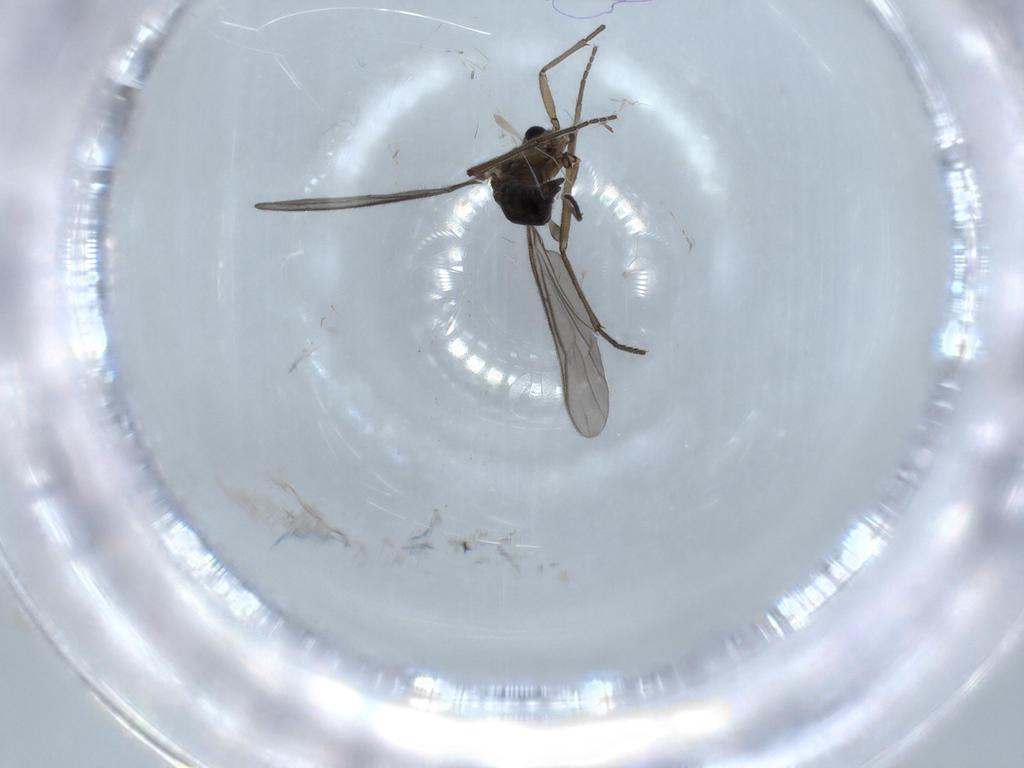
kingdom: Animalia
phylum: Arthropoda
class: Insecta
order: Diptera
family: Sciaridae
